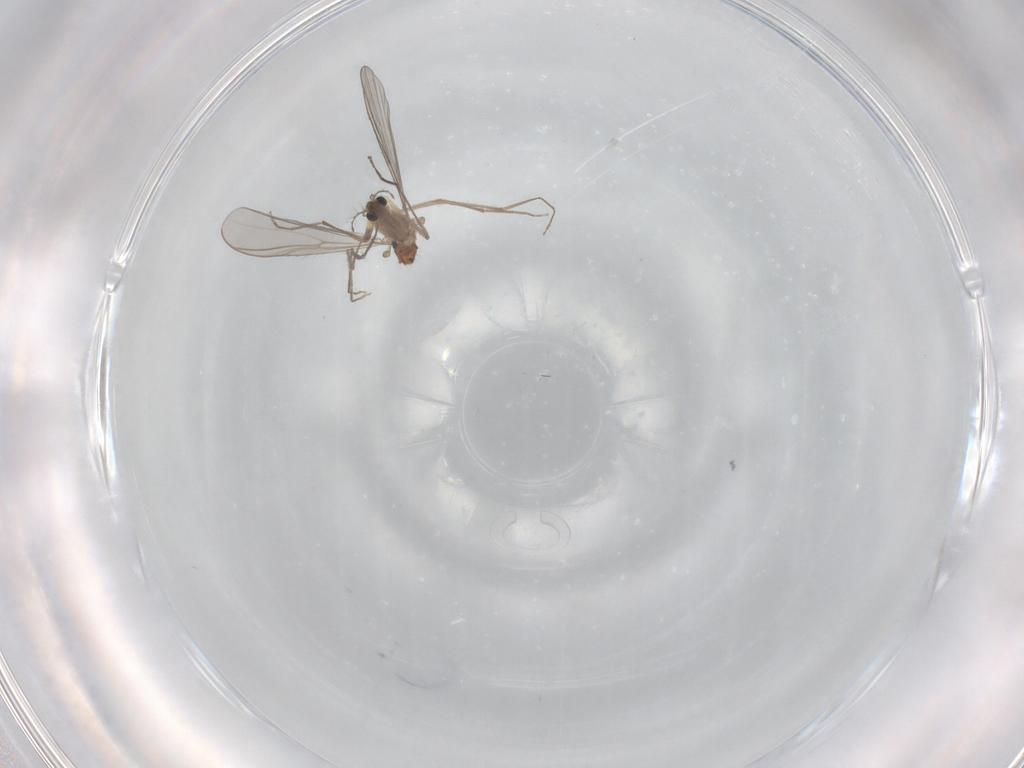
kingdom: Animalia
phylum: Arthropoda
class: Insecta
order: Diptera
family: Chironomidae
